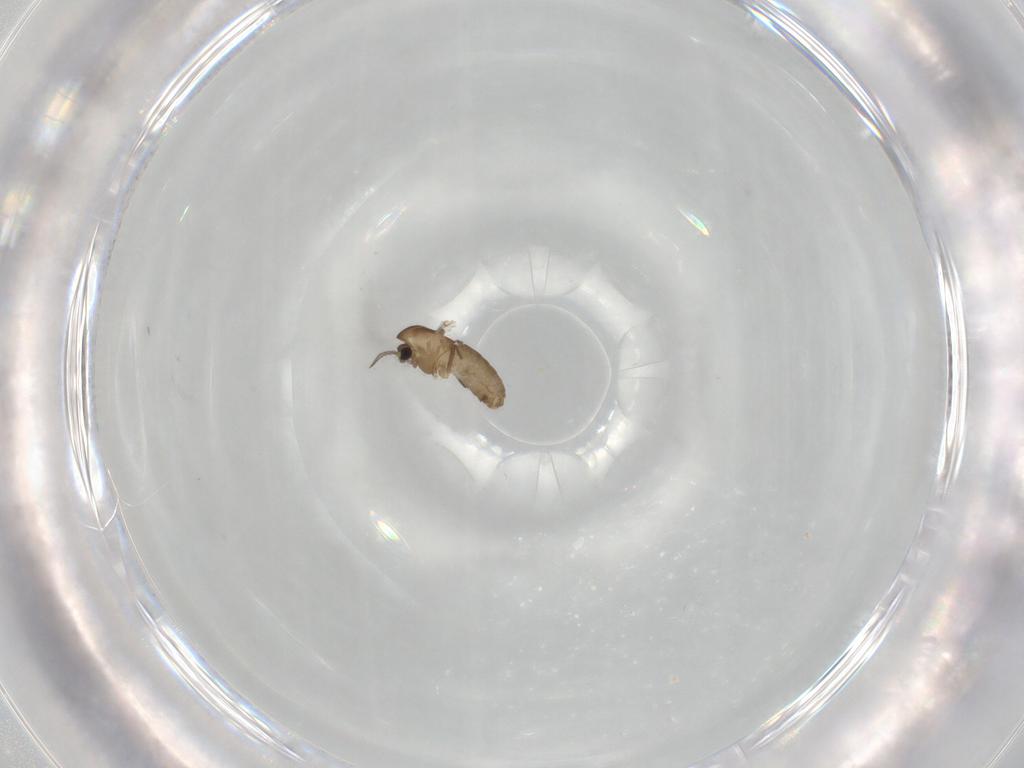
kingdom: Animalia
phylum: Arthropoda
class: Insecta
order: Diptera
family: Chironomidae
